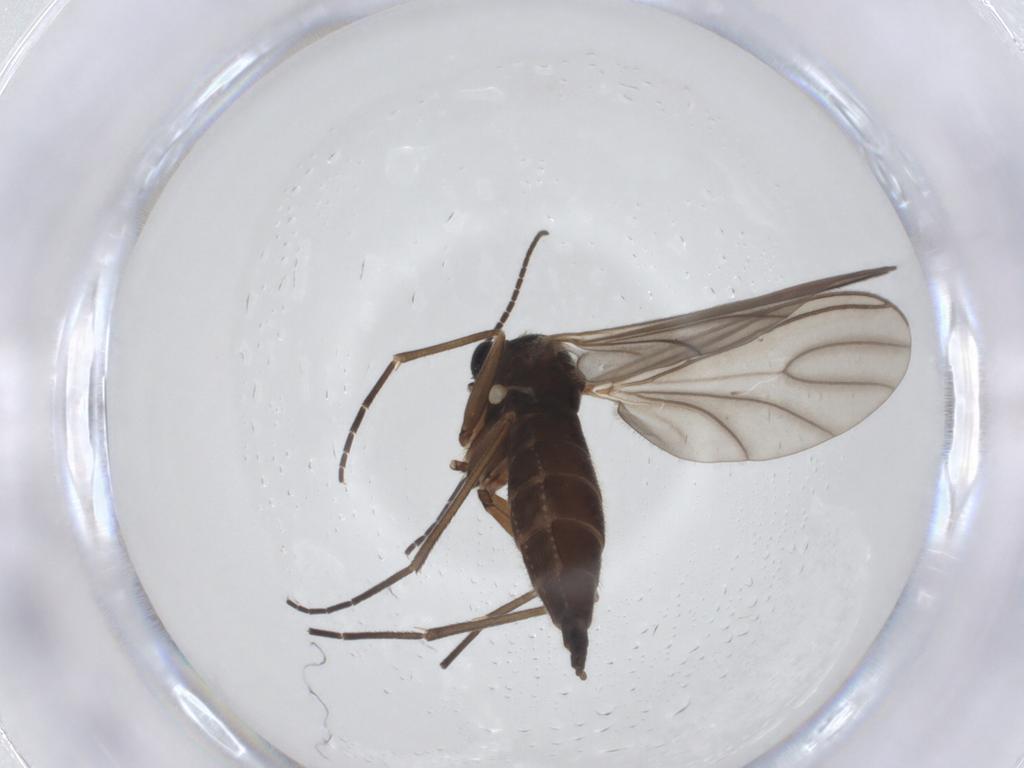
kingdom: Animalia
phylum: Arthropoda
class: Insecta
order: Diptera
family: Sciaridae
